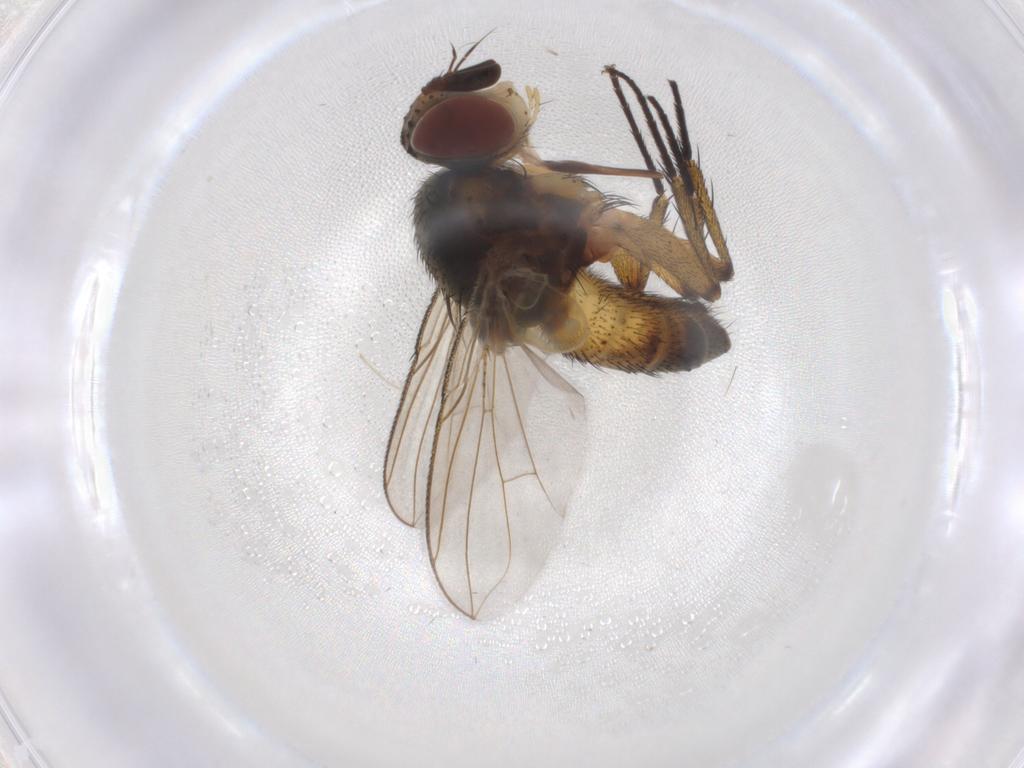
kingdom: Animalia
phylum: Arthropoda
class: Insecta
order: Diptera
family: Tachinidae
